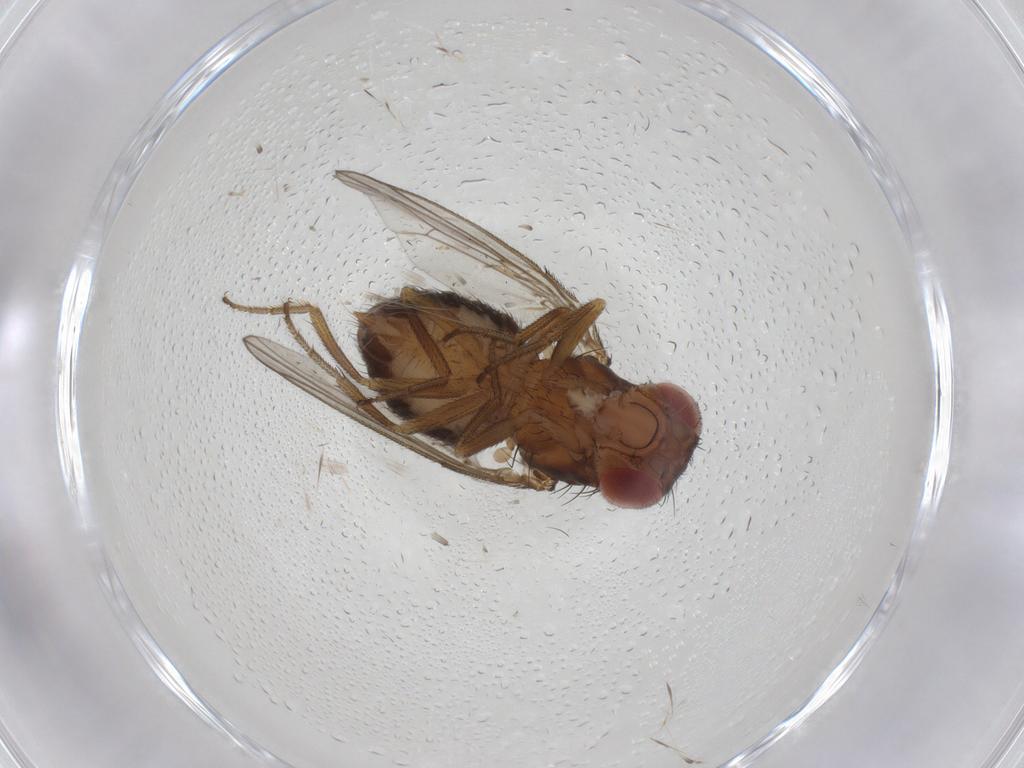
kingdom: Animalia
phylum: Arthropoda
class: Insecta
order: Diptera
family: Drosophilidae
